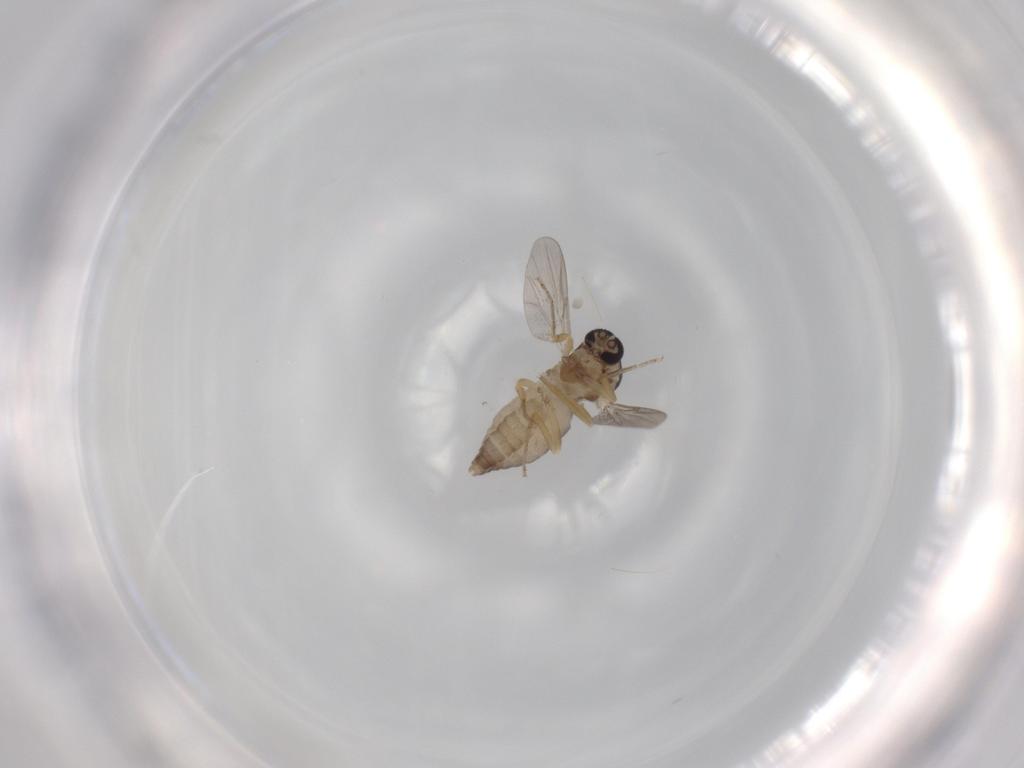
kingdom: Animalia
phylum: Arthropoda
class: Insecta
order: Diptera
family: Ceratopogonidae
